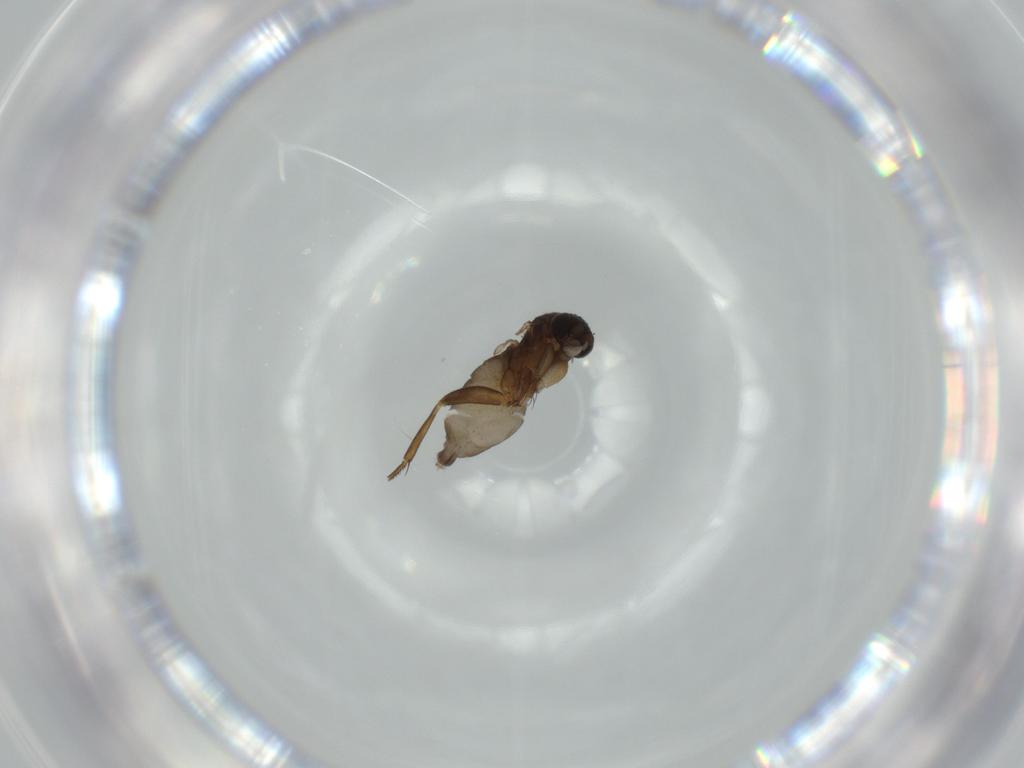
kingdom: Animalia
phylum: Arthropoda
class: Insecta
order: Diptera
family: Phoridae
